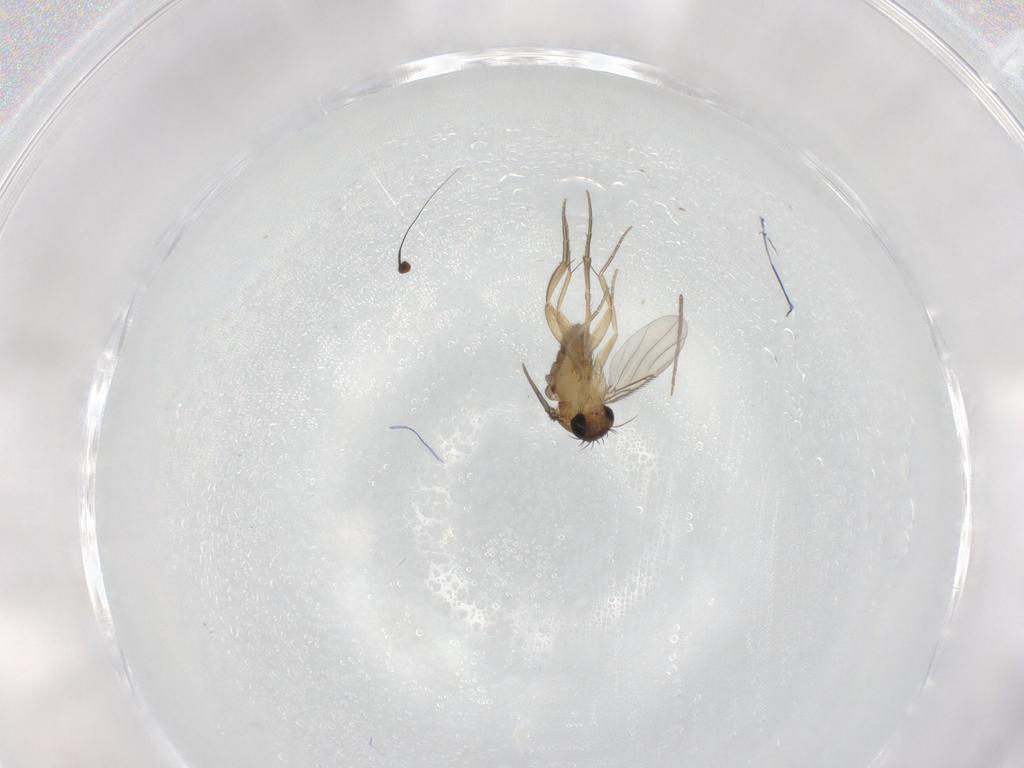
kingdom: Animalia
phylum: Arthropoda
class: Insecta
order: Diptera
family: Phoridae
